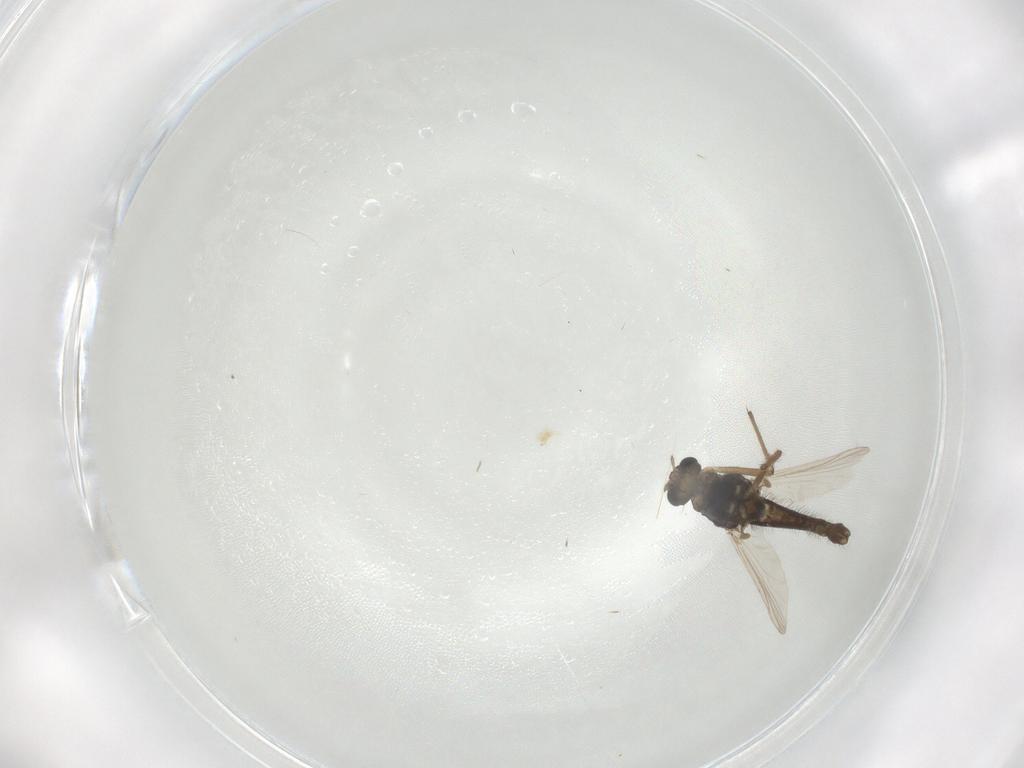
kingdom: Animalia
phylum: Arthropoda
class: Insecta
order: Diptera
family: Chironomidae
